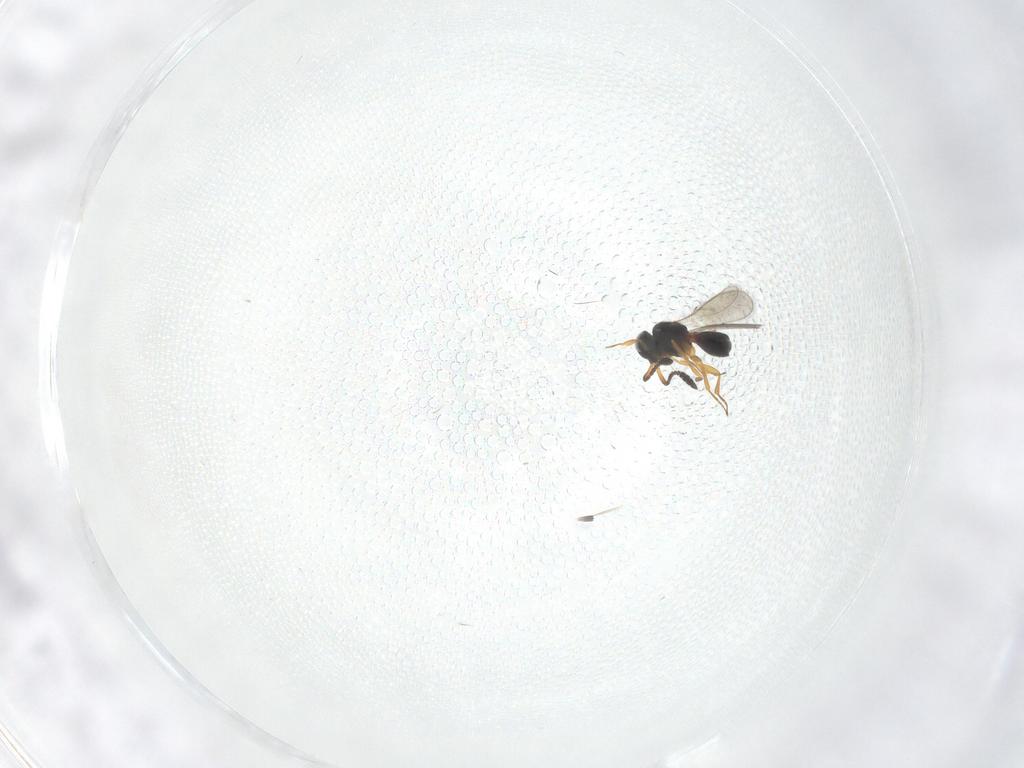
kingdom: Animalia
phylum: Arthropoda
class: Insecta
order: Hymenoptera
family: Scelionidae
